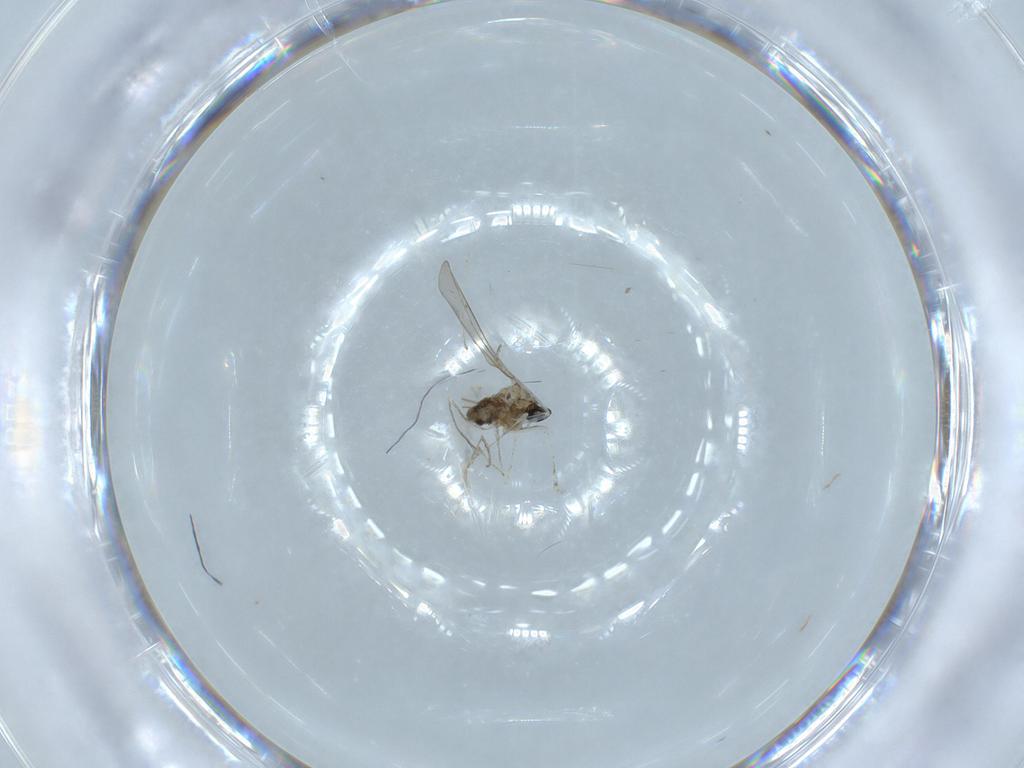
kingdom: Animalia
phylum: Arthropoda
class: Insecta
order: Diptera
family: Cecidomyiidae
